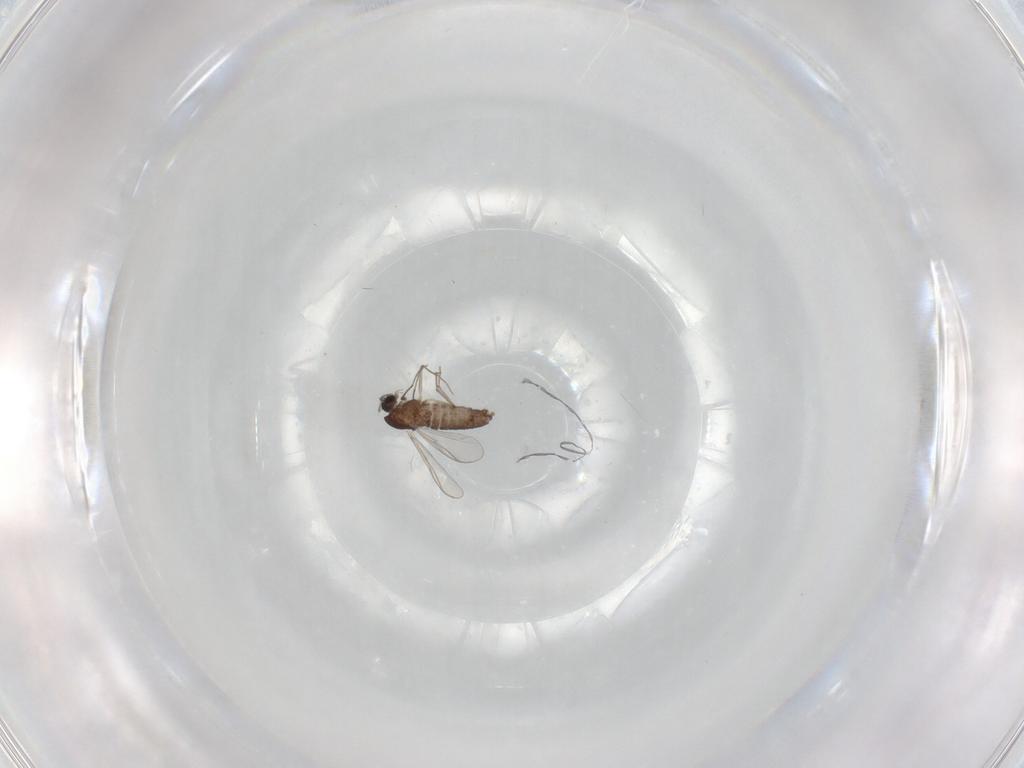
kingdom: Animalia
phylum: Arthropoda
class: Insecta
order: Diptera
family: Chironomidae
